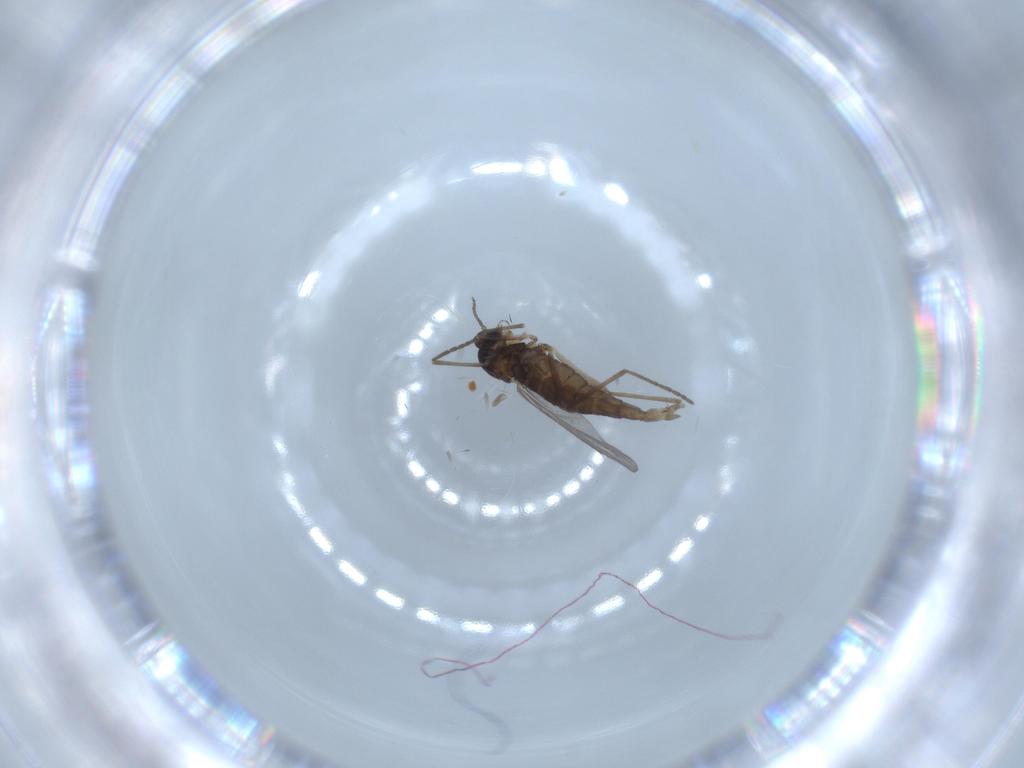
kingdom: Animalia
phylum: Arthropoda
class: Insecta
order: Diptera
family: Cecidomyiidae
